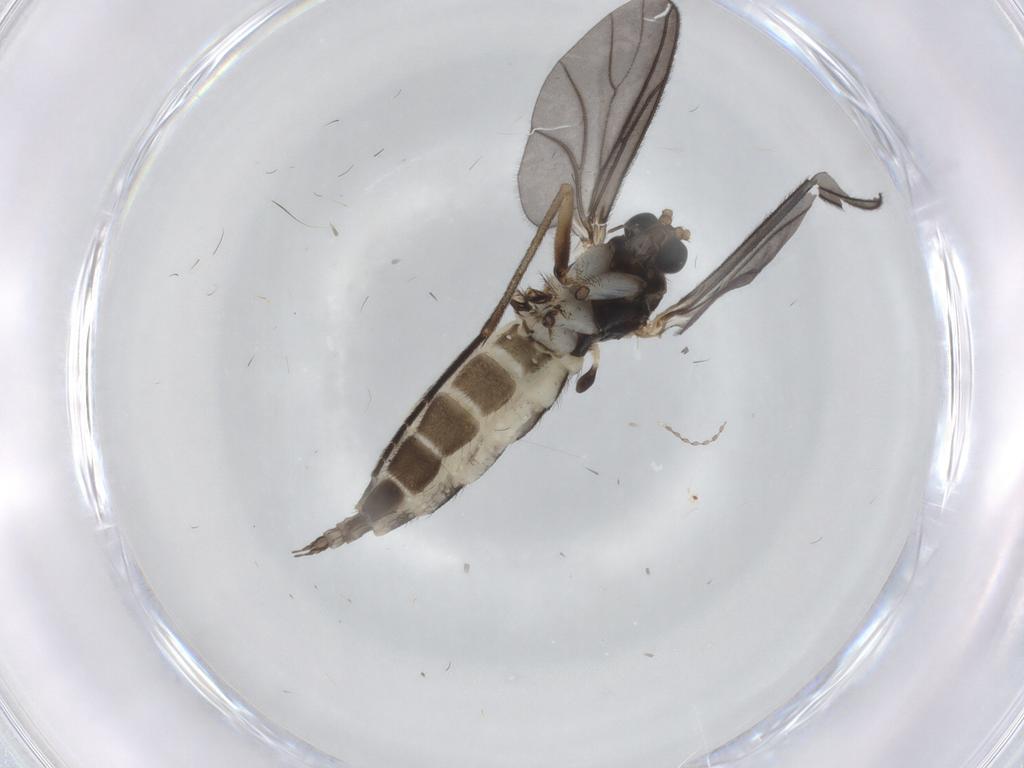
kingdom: Animalia
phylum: Arthropoda
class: Insecta
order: Diptera
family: Sciaridae
